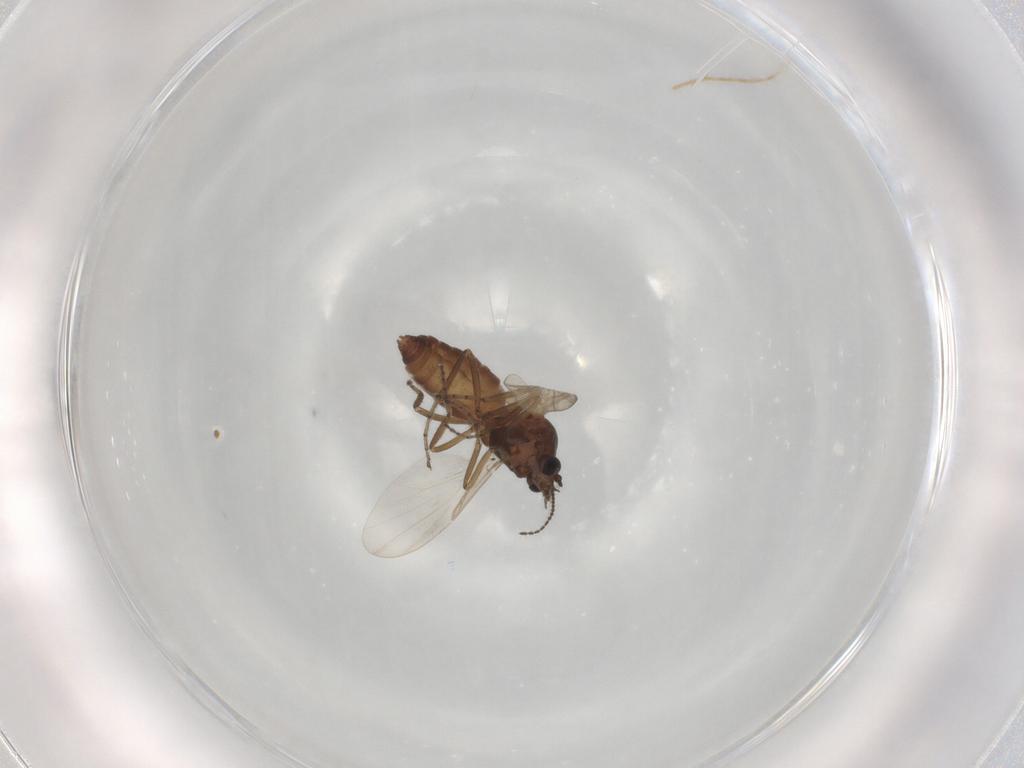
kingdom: Animalia
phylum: Arthropoda
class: Insecta
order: Diptera
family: Ceratopogonidae
